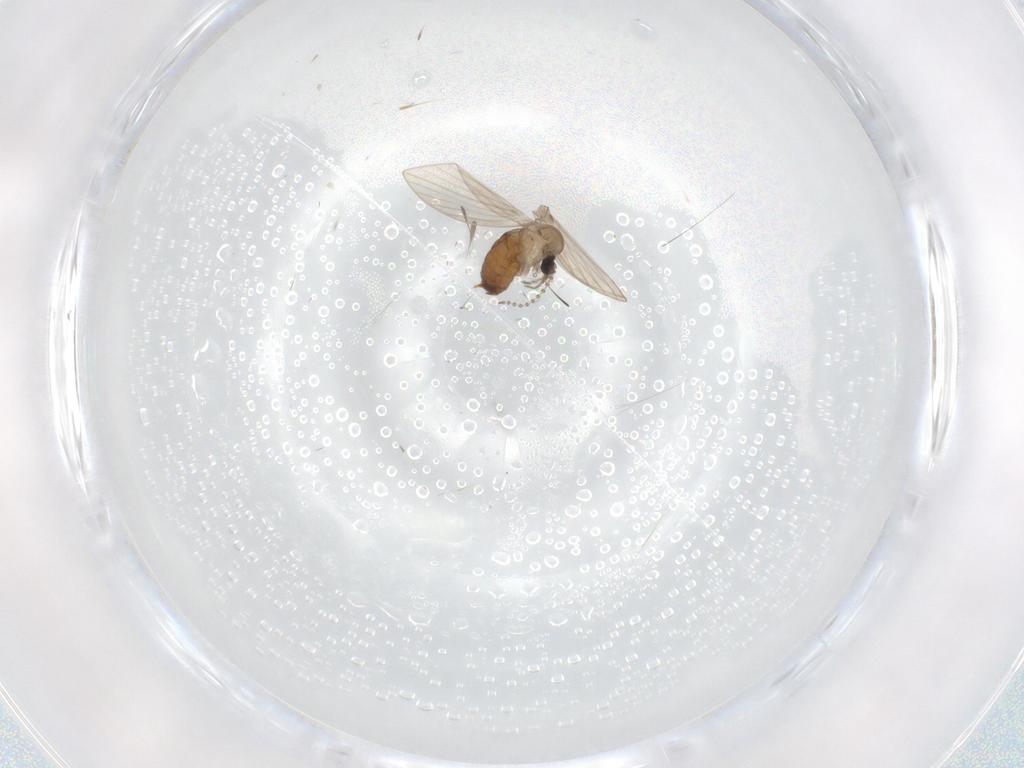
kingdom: Animalia
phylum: Arthropoda
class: Insecta
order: Diptera
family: Psychodidae
